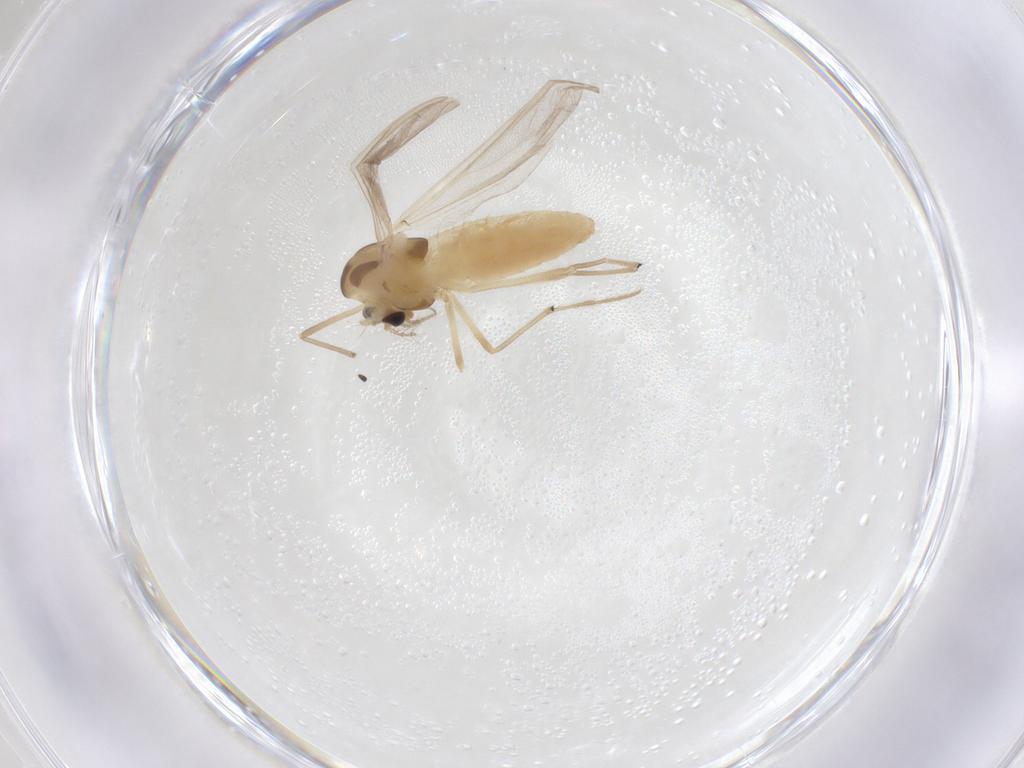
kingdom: Animalia
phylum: Arthropoda
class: Insecta
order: Diptera
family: Chironomidae
